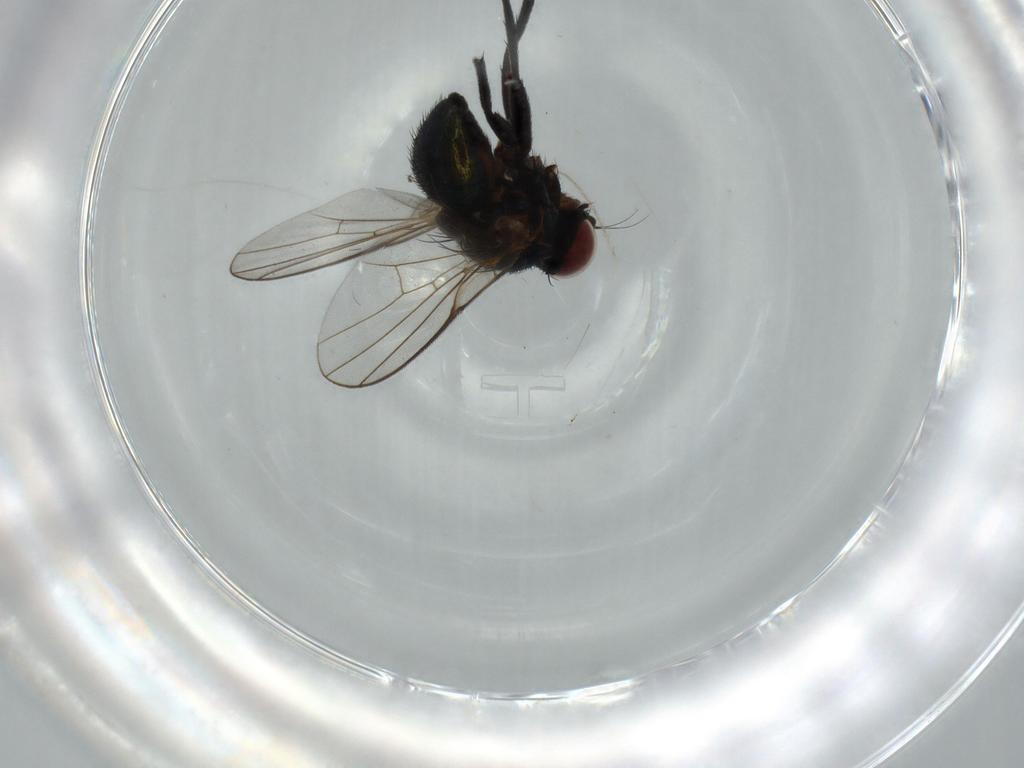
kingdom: Animalia
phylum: Arthropoda
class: Insecta
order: Diptera
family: Agromyzidae
